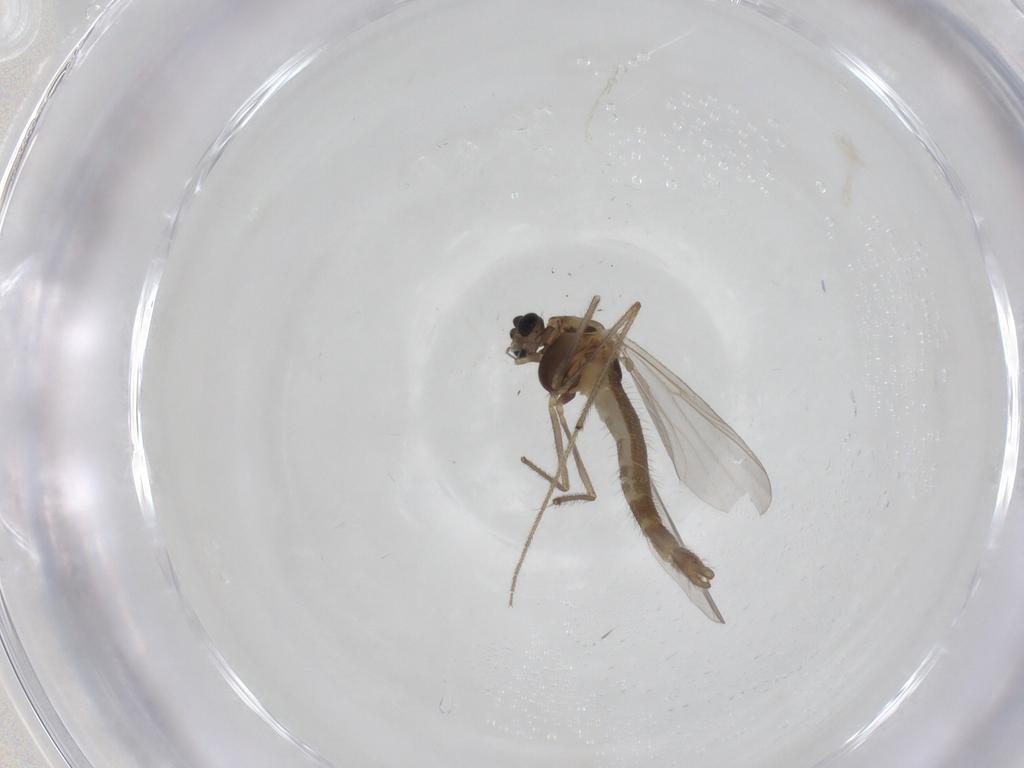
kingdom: Animalia
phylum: Arthropoda
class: Insecta
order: Diptera
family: Chironomidae
